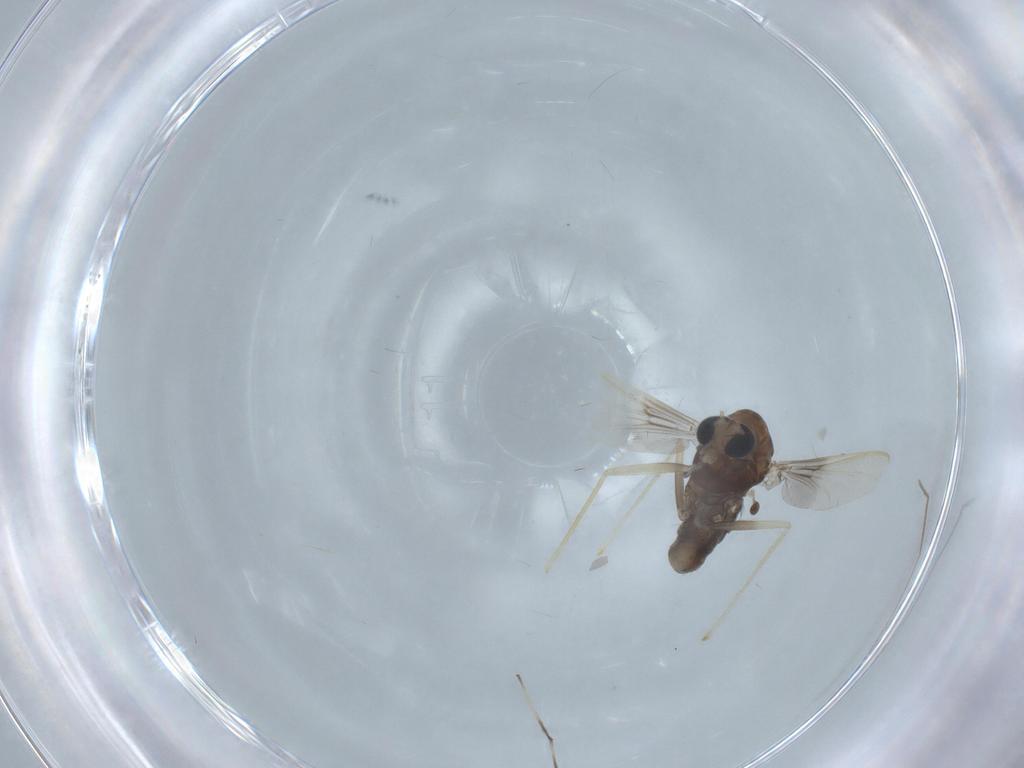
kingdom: Animalia
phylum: Arthropoda
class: Insecta
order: Diptera
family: Chironomidae
